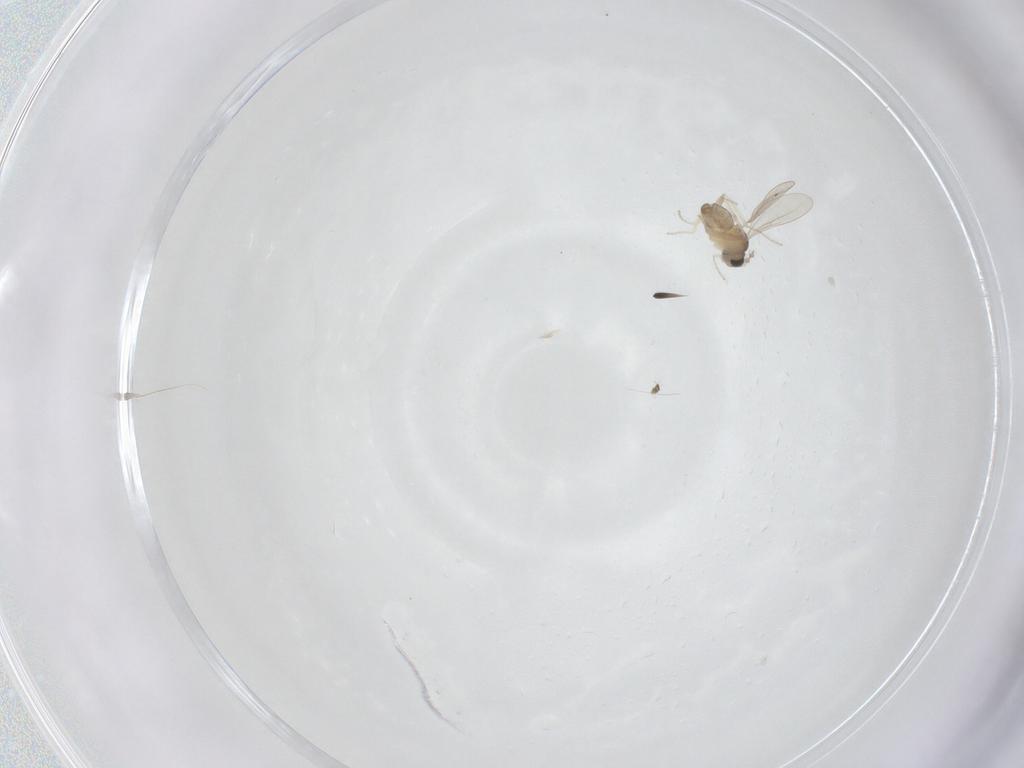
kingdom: Animalia
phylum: Arthropoda
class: Insecta
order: Diptera
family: Cecidomyiidae
